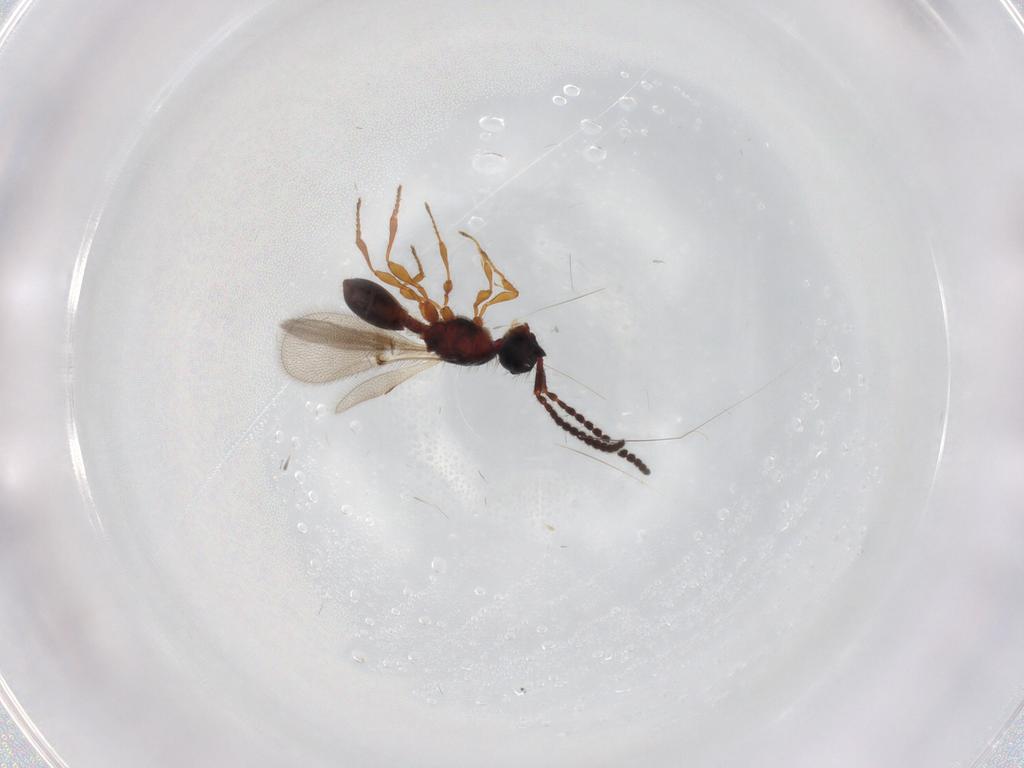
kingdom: Animalia
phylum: Arthropoda
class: Insecta
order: Hymenoptera
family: Diapriidae
